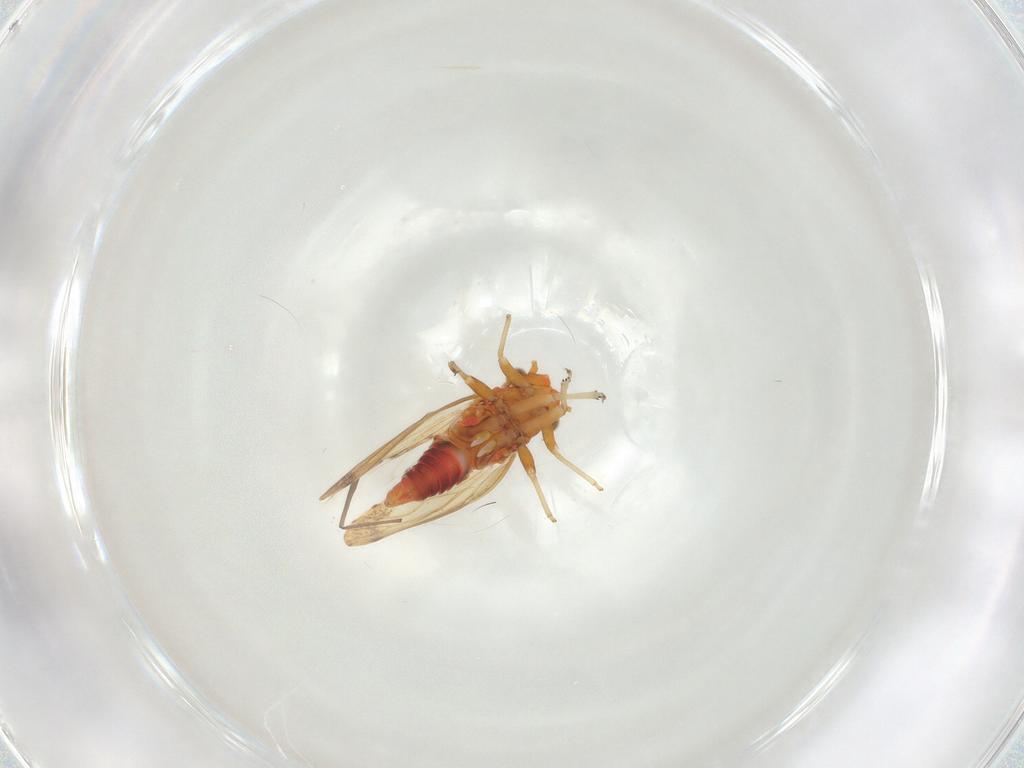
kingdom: Animalia
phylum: Arthropoda
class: Insecta
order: Hemiptera
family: Psyllidae
